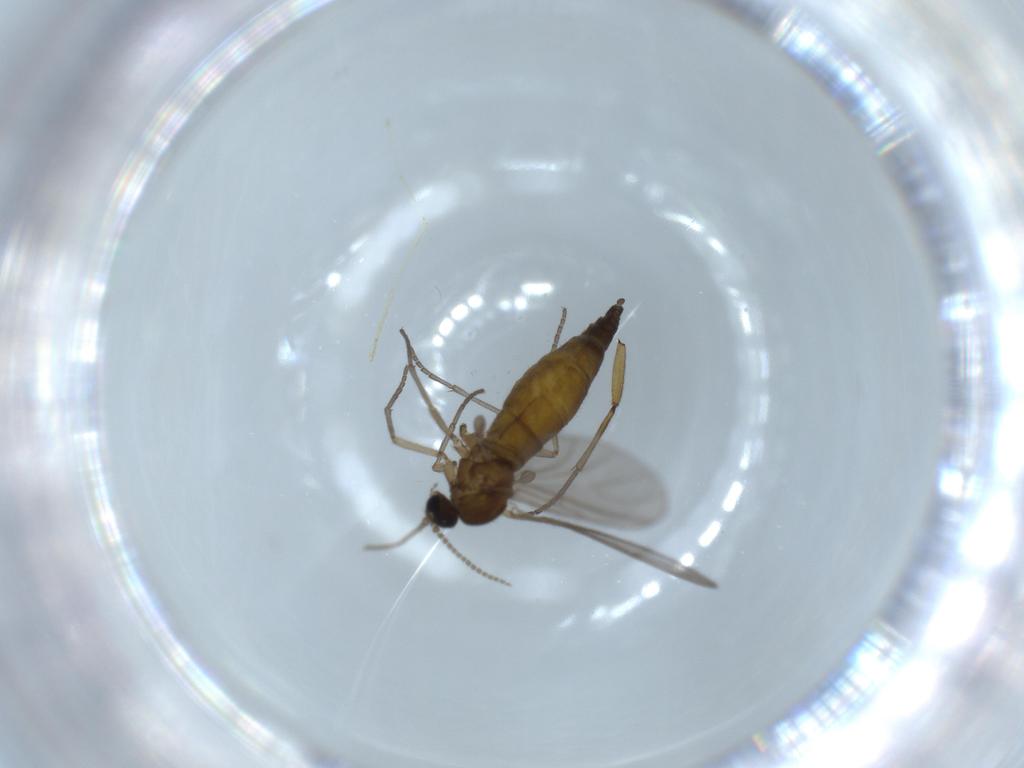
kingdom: Animalia
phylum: Arthropoda
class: Insecta
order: Diptera
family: Sciaridae
